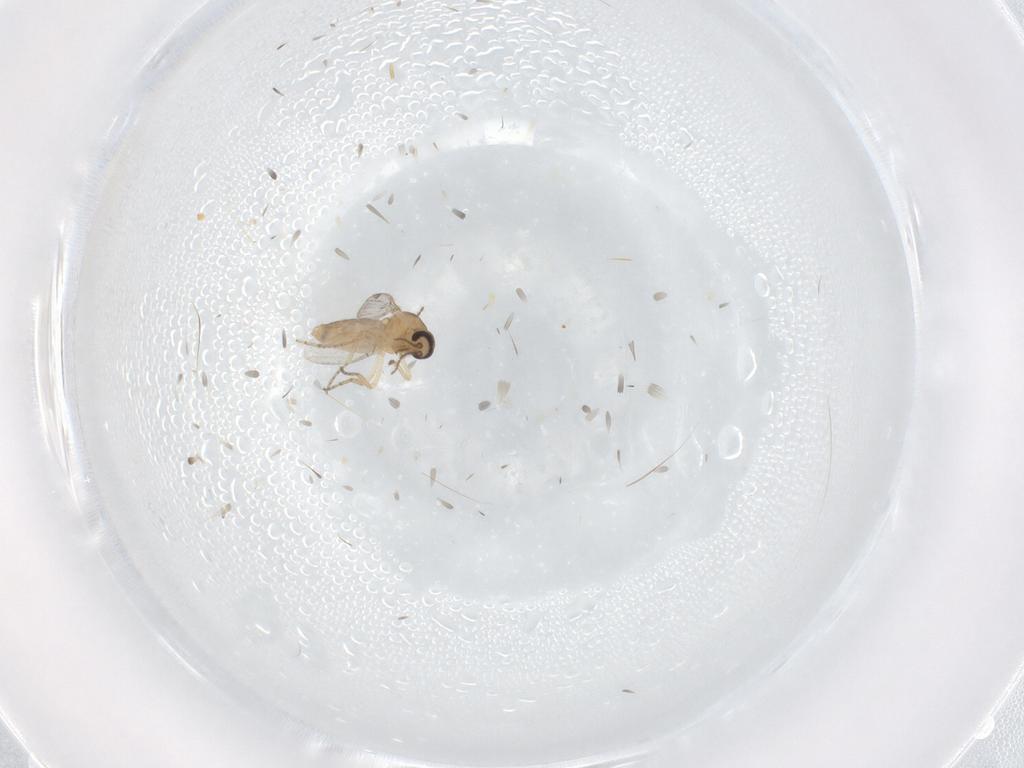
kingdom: Animalia
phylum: Arthropoda
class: Insecta
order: Diptera
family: Ceratopogonidae
